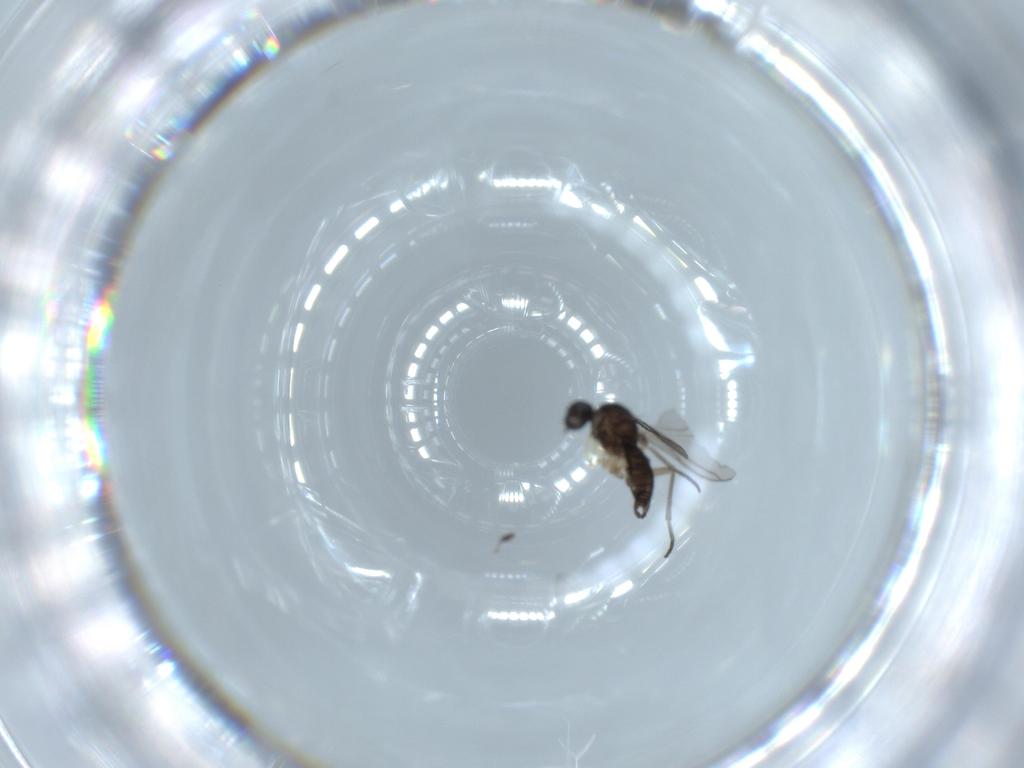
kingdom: Animalia
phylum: Arthropoda
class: Insecta
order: Diptera
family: Sciaridae
